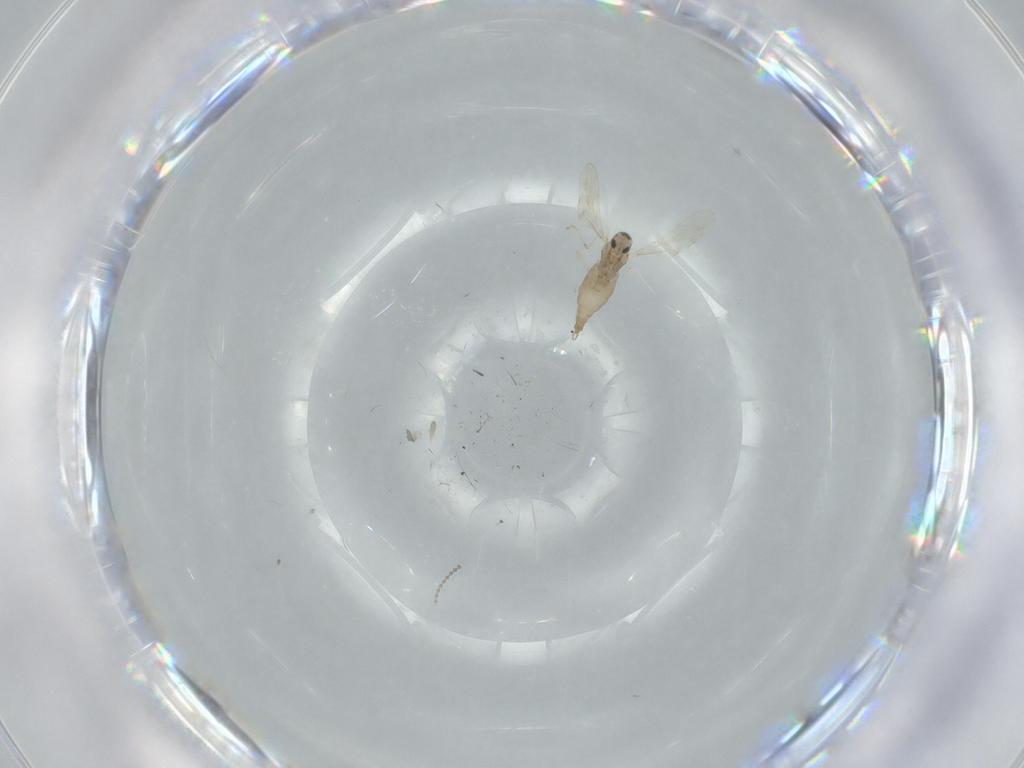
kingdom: Animalia
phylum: Arthropoda
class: Insecta
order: Diptera
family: Cecidomyiidae
